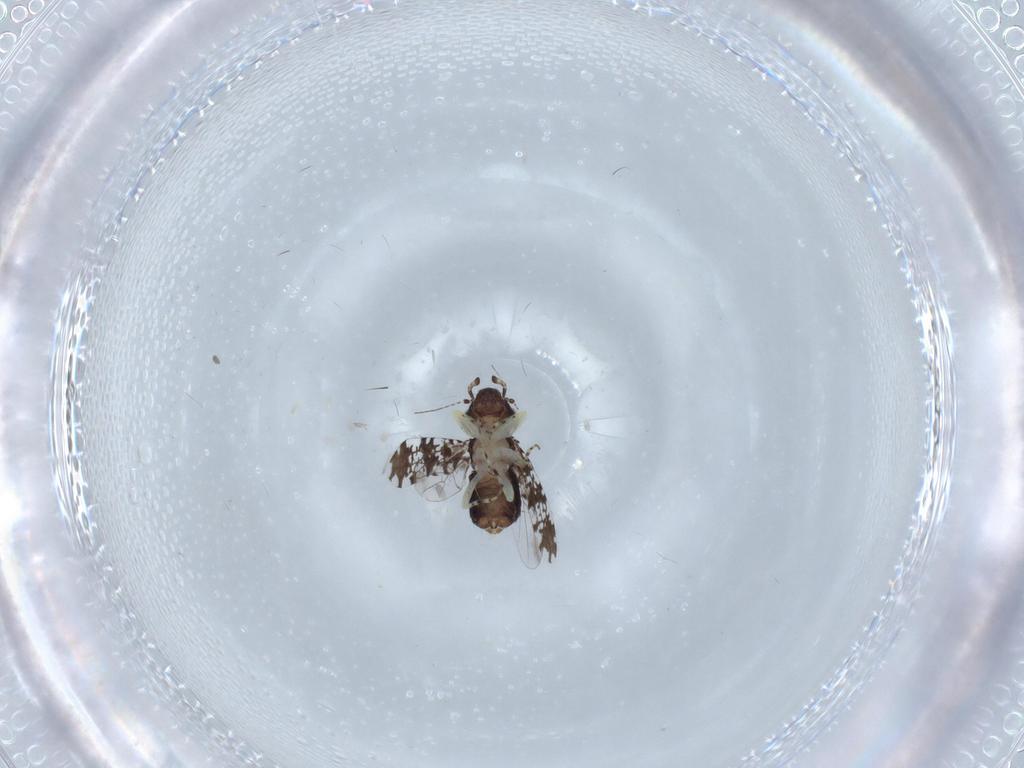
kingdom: Animalia
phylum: Arthropoda
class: Insecta
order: Psocodea
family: Psoquillidae
